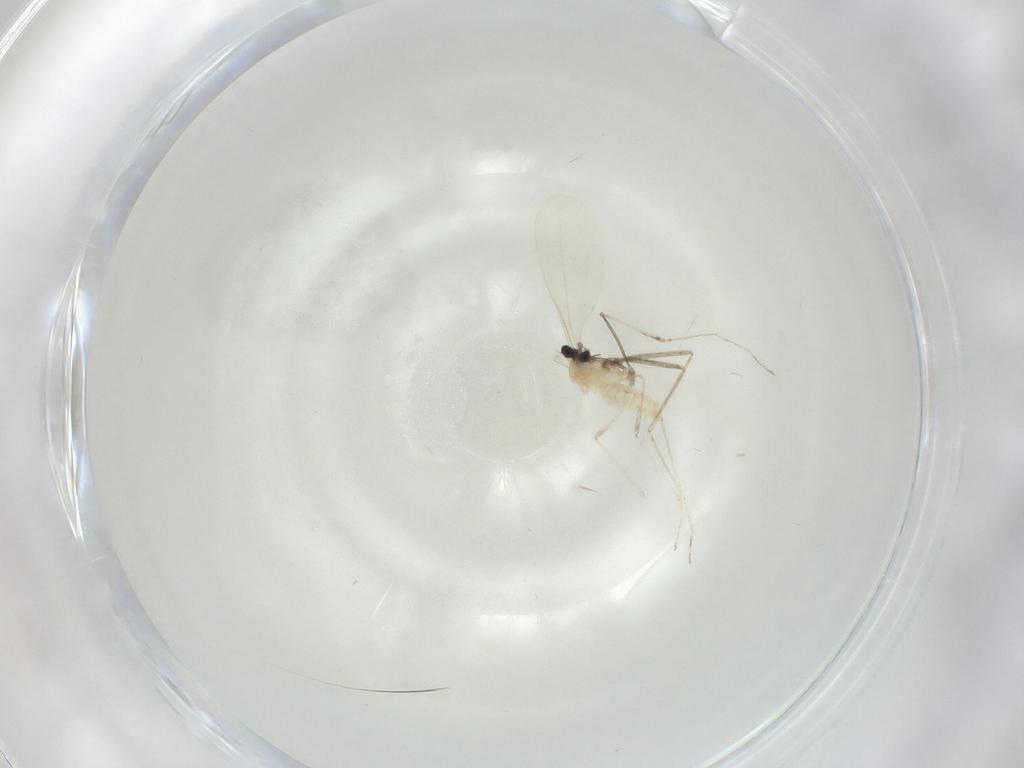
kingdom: Animalia
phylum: Arthropoda
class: Insecta
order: Diptera
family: Cecidomyiidae
